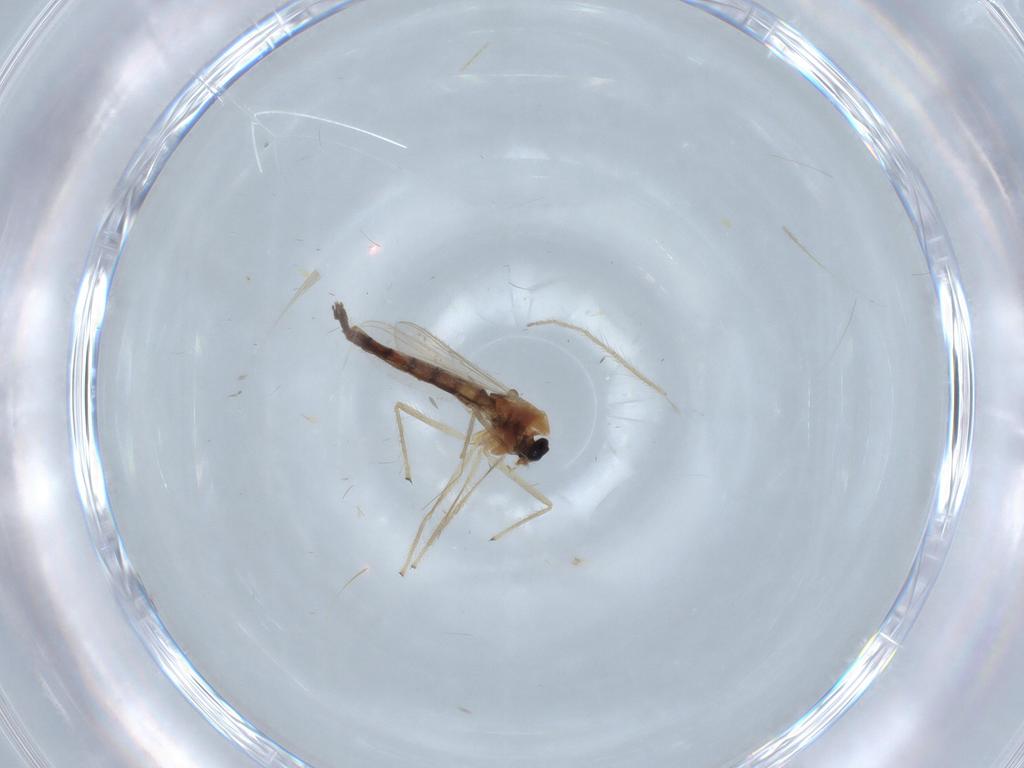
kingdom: Animalia
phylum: Arthropoda
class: Insecta
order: Diptera
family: Chironomidae
